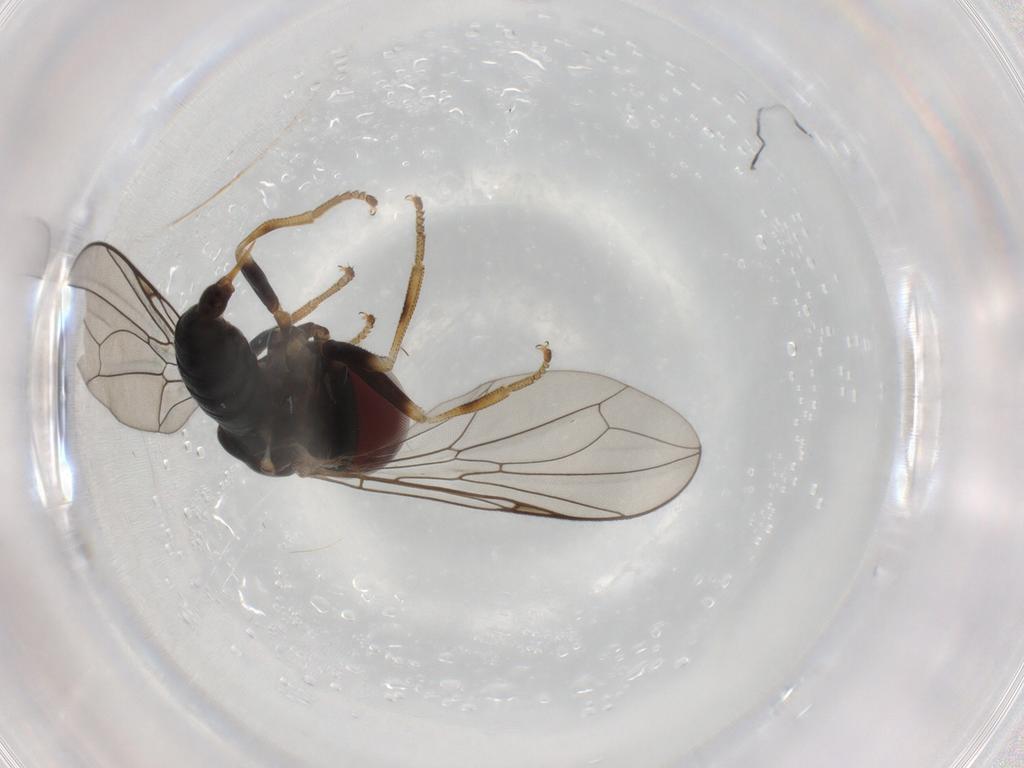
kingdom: Animalia
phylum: Arthropoda
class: Insecta
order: Diptera
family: Pipunculidae
